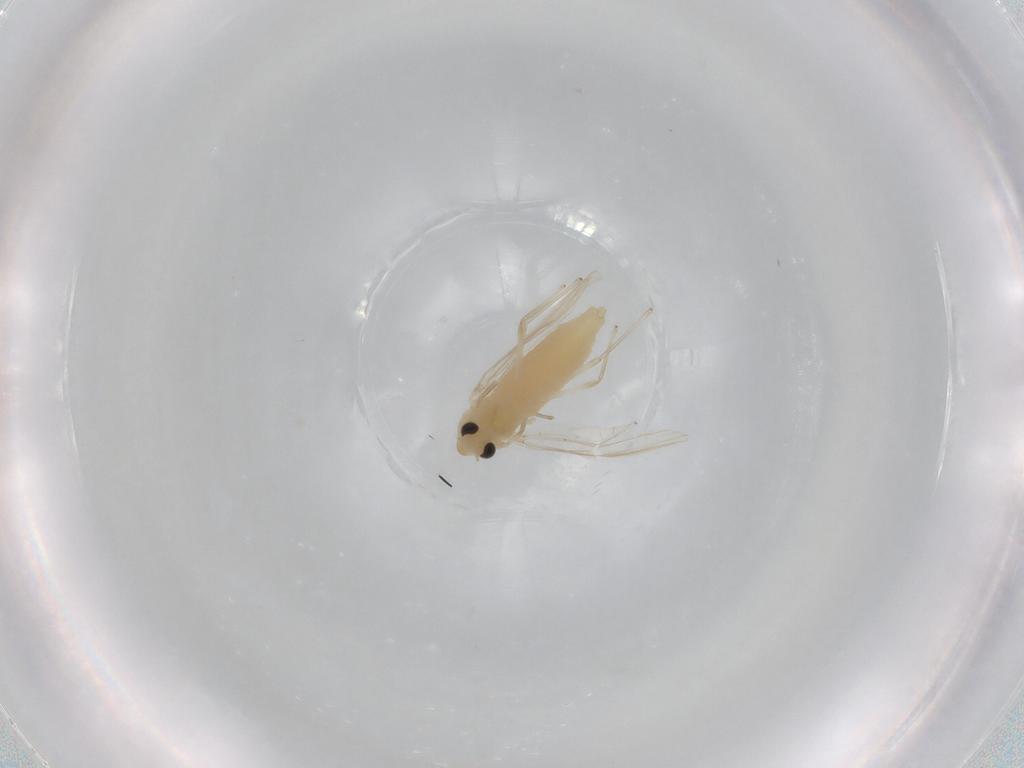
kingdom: Animalia
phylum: Arthropoda
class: Insecta
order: Diptera
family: Chironomidae
